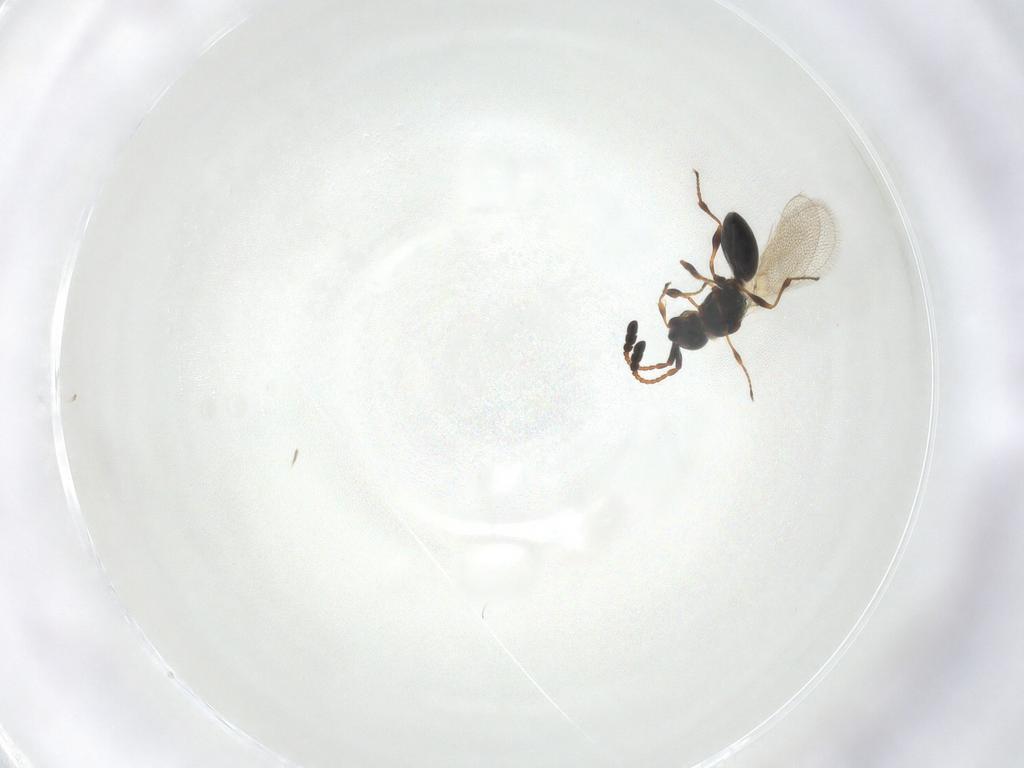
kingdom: Animalia
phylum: Arthropoda
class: Insecta
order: Hymenoptera
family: Diapriidae
